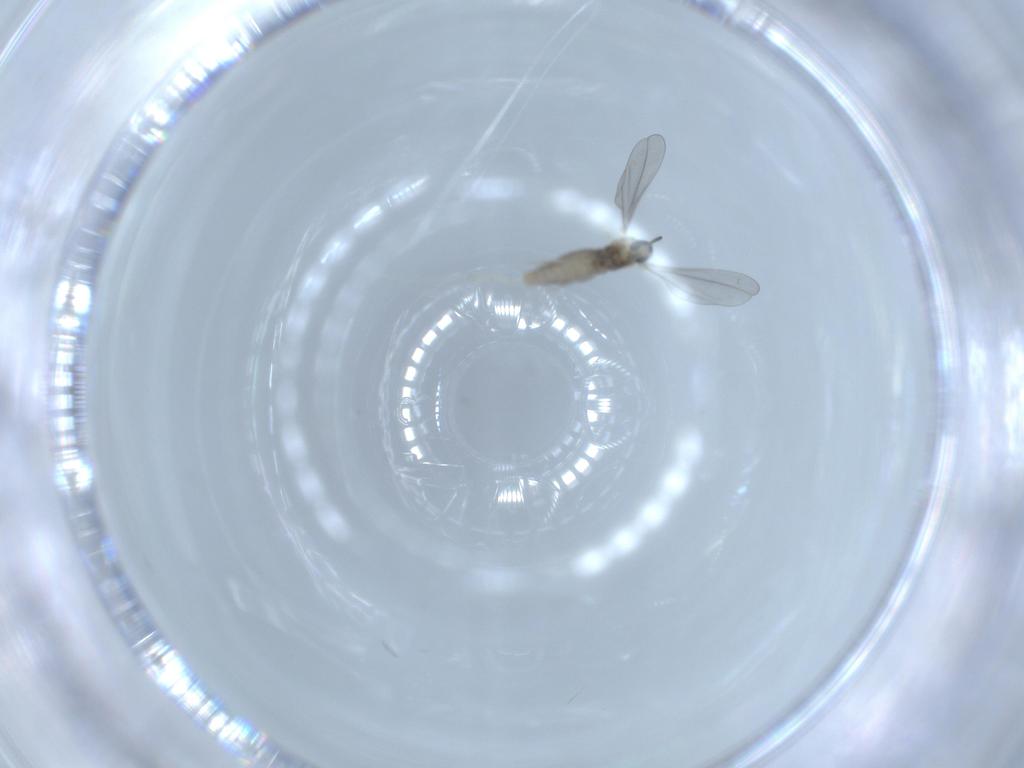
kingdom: Animalia
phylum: Arthropoda
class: Insecta
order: Diptera
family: Cecidomyiidae
